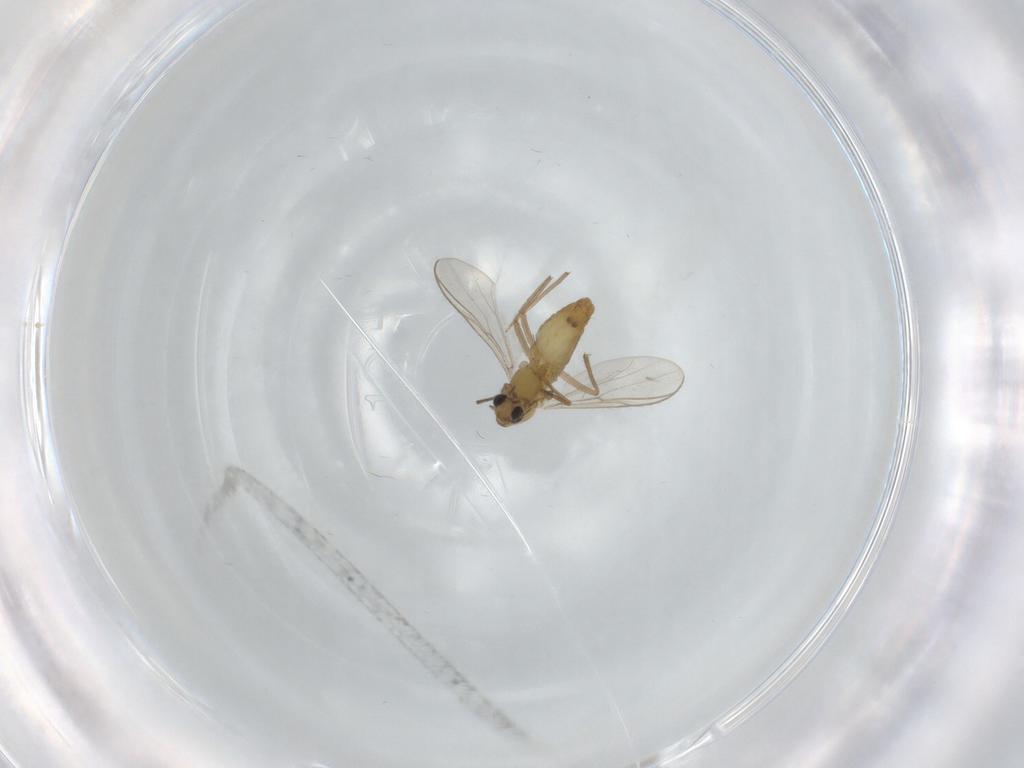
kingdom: Animalia
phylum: Arthropoda
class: Insecta
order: Diptera
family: Chironomidae
